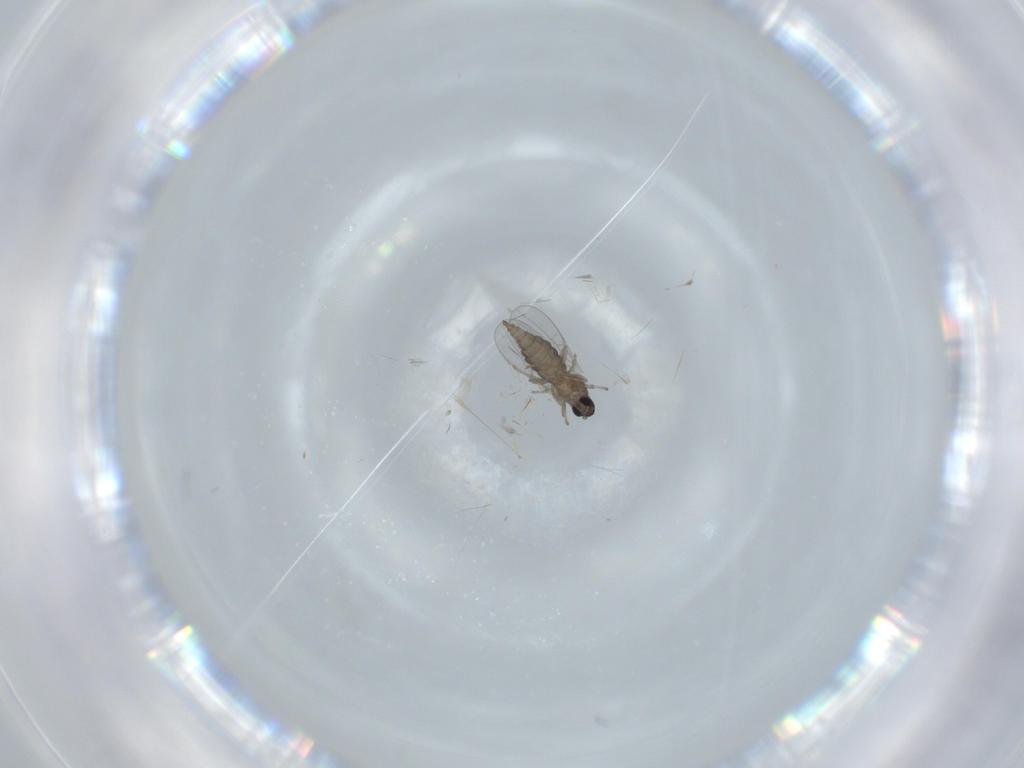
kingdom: Animalia
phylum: Arthropoda
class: Insecta
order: Diptera
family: Cecidomyiidae
